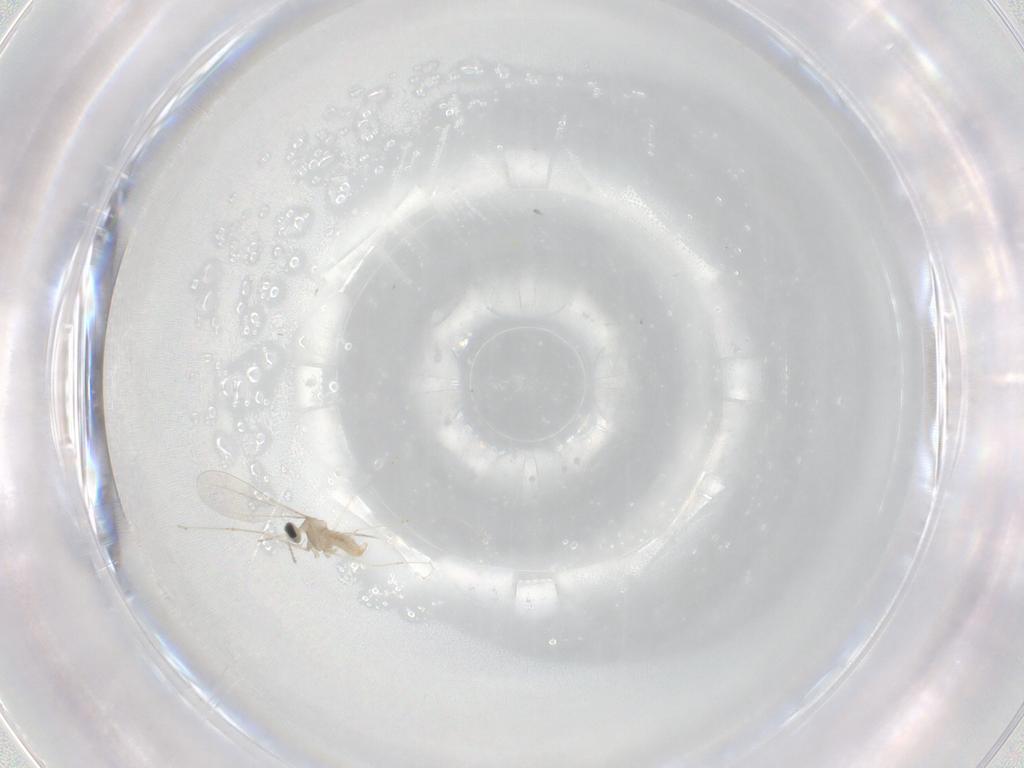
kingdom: Animalia
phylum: Arthropoda
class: Insecta
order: Diptera
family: Cecidomyiidae
